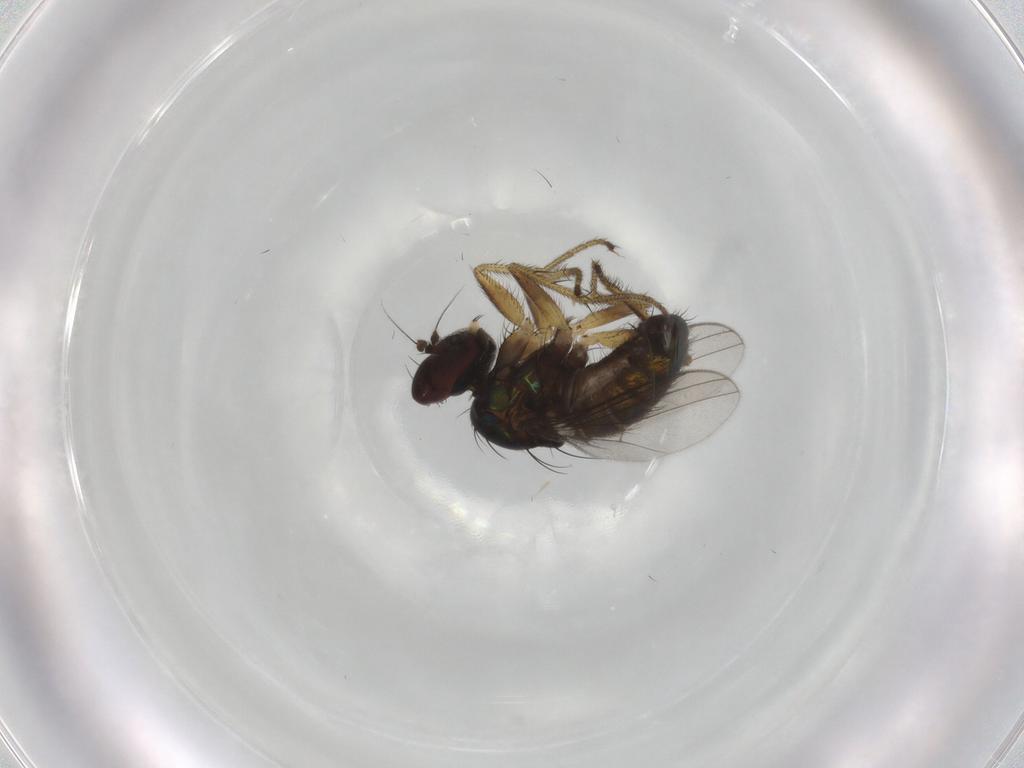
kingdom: Animalia
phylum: Arthropoda
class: Insecta
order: Diptera
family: Dolichopodidae
